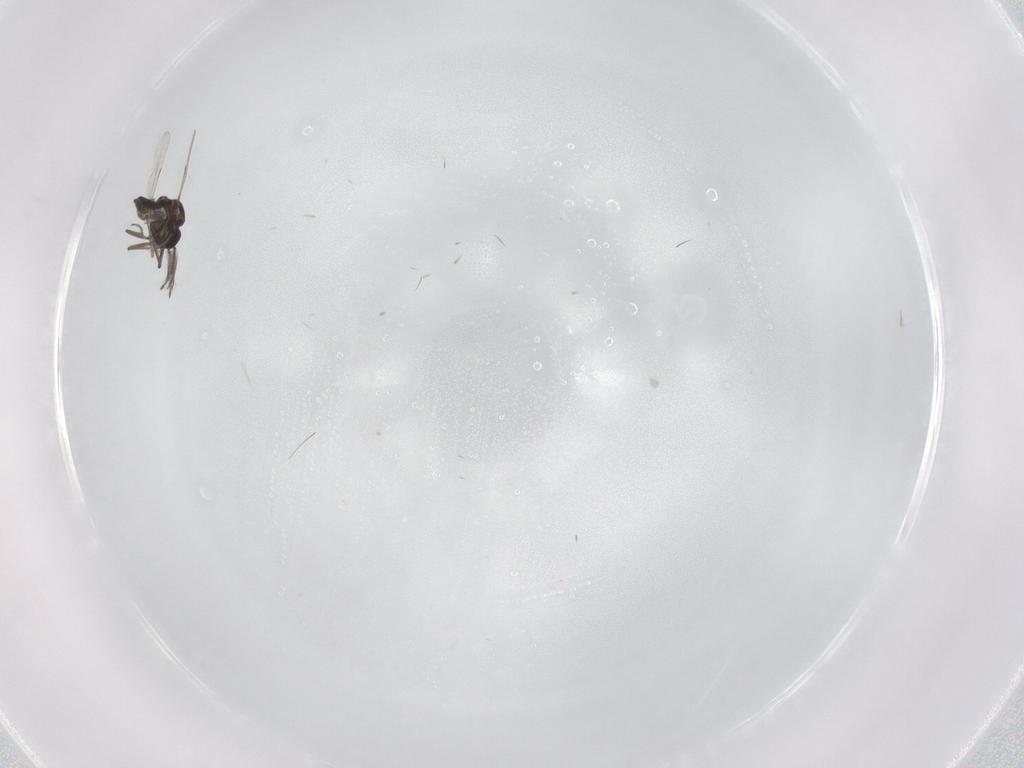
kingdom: Animalia
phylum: Arthropoda
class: Insecta
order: Diptera
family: Ceratopogonidae
